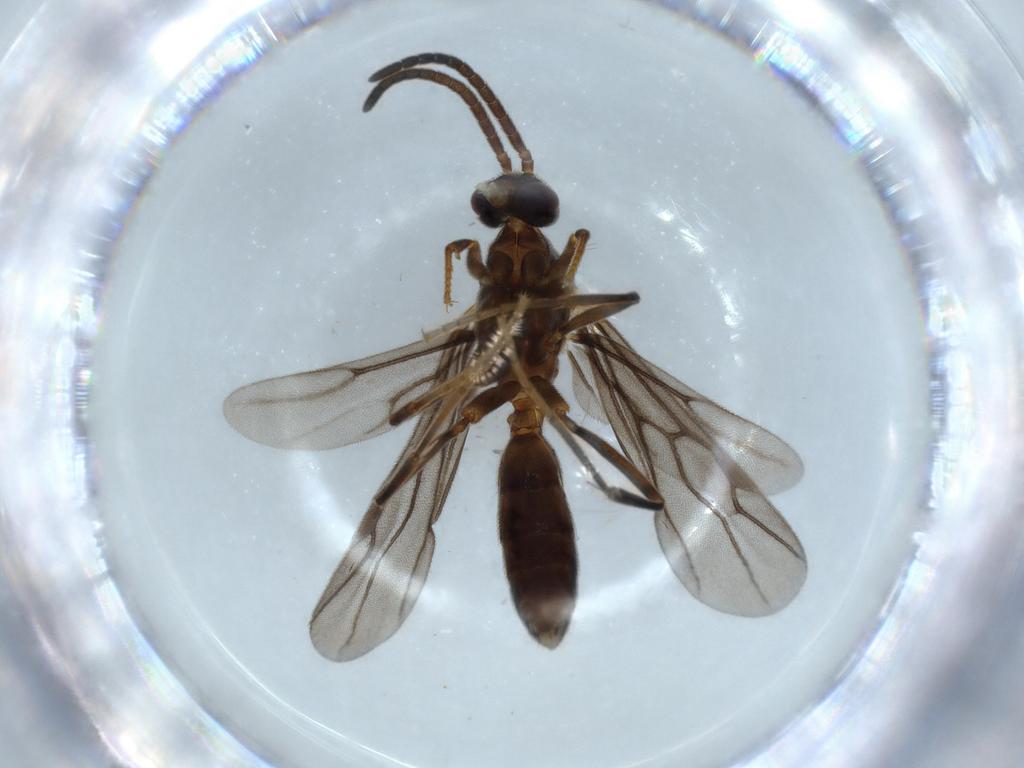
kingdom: Animalia
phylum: Arthropoda
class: Insecta
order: Hymenoptera
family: Formicidae
